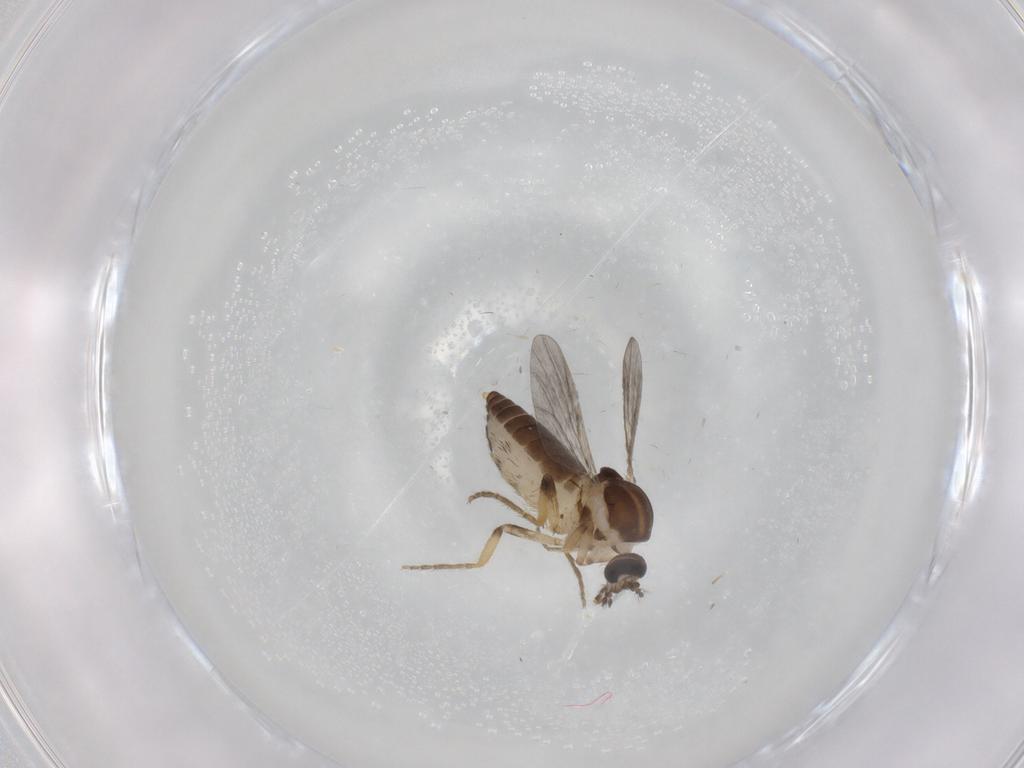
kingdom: Animalia
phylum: Arthropoda
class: Insecta
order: Diptera
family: Ceratopogonidae
